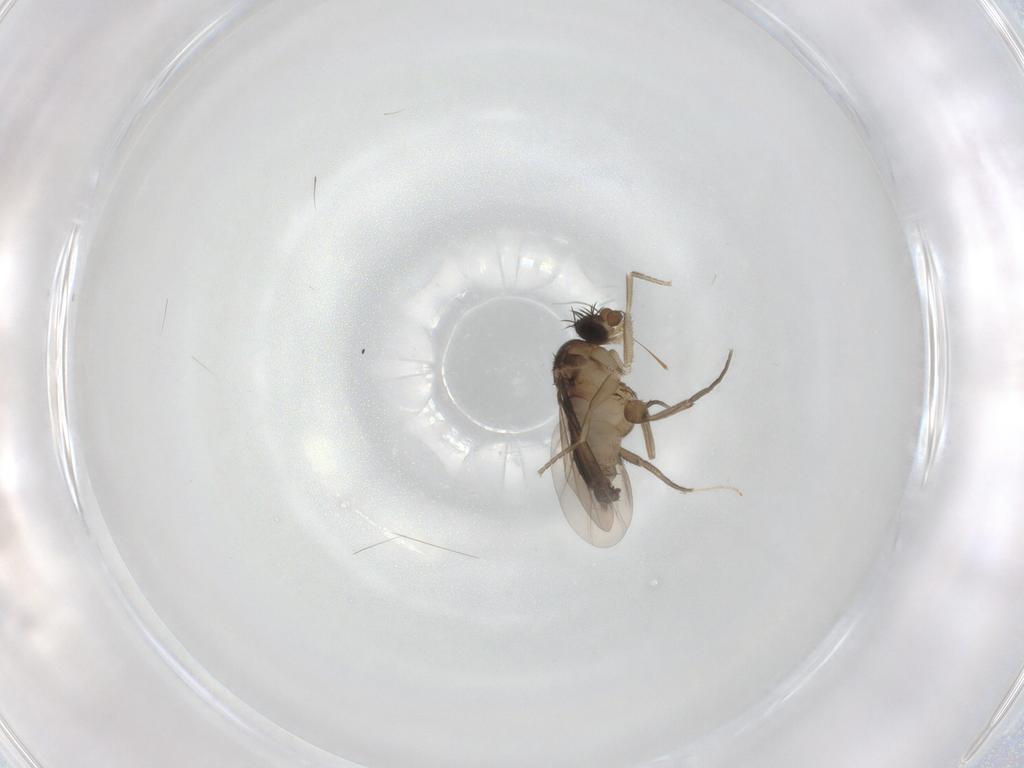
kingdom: Animalia
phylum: Arthropoda
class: Insecta
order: Diptera
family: Phoridae
